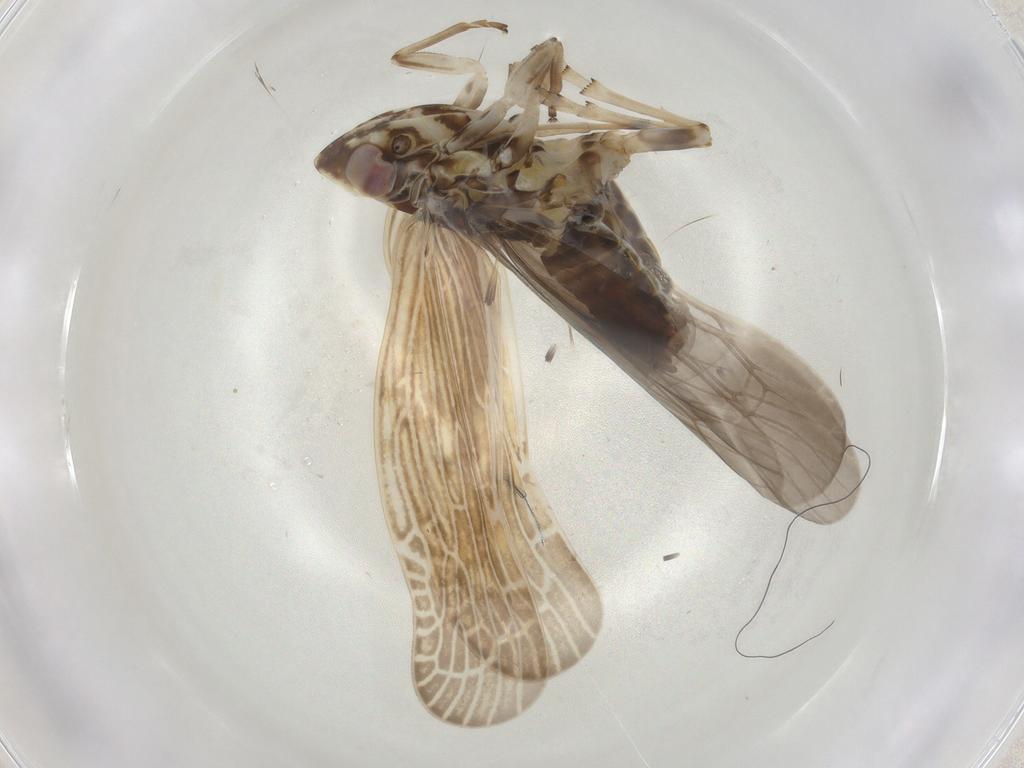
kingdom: Animalia
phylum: Arthropoda
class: Insecta
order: Hemiptera
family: Achilidae
